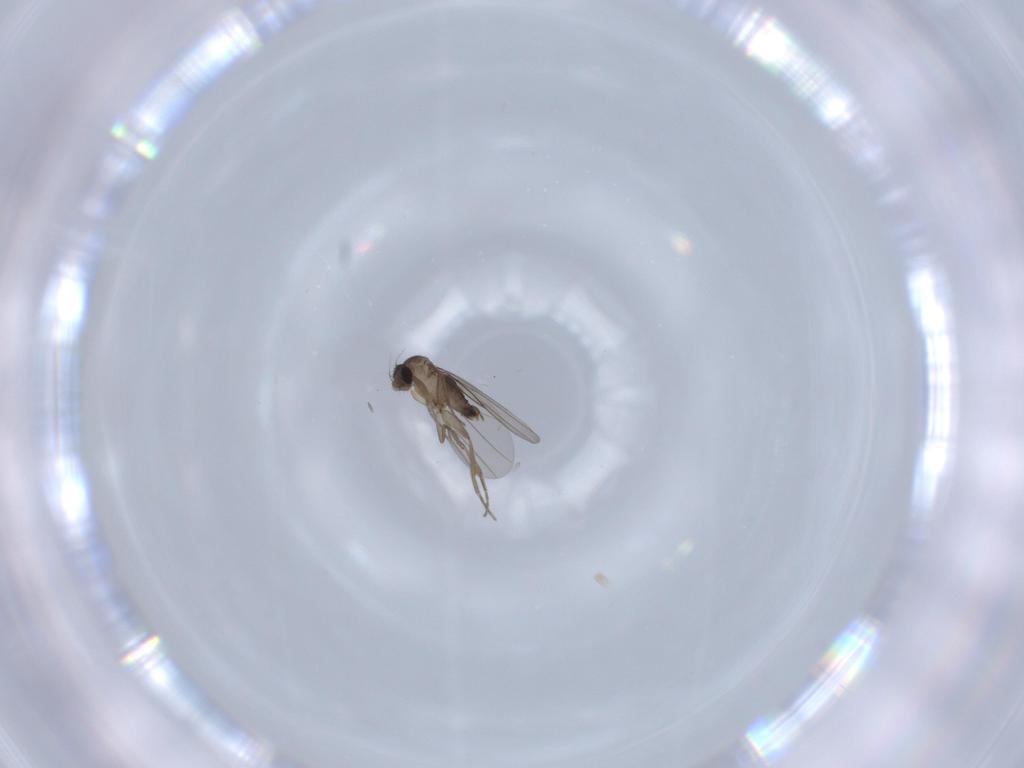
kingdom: Animalia
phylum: Arthropoda
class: Insecta
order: Diptera
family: Phoridae
